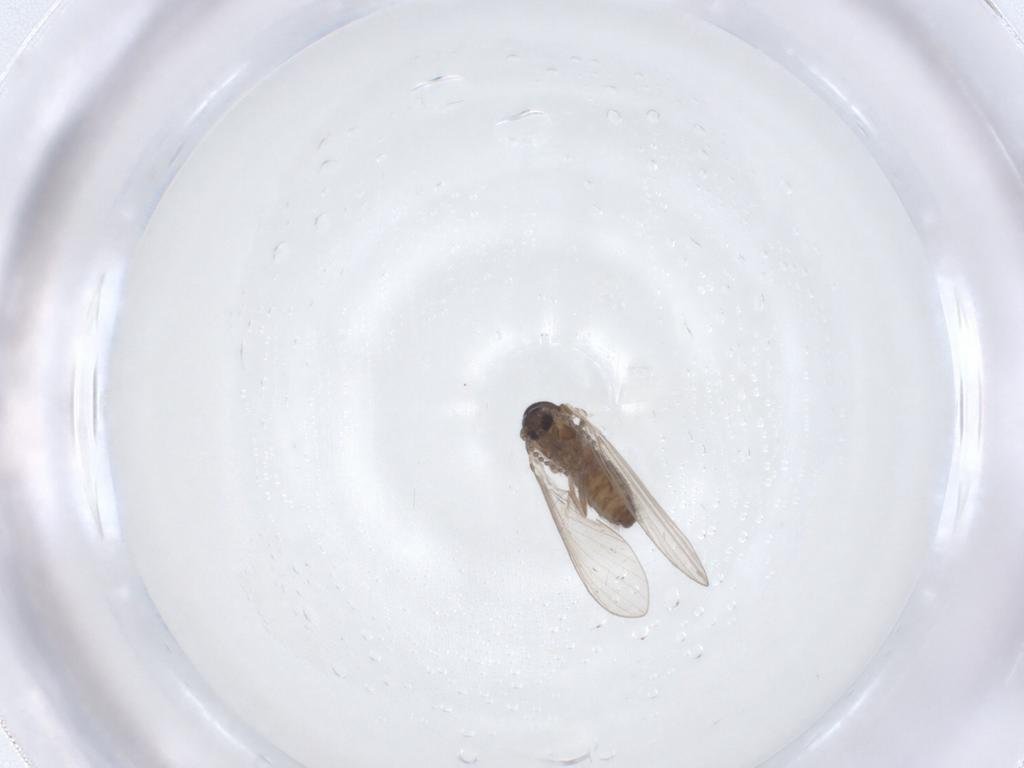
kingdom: Animalia
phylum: Arthropoda
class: Insecta
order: Diptera
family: Psychodidae
